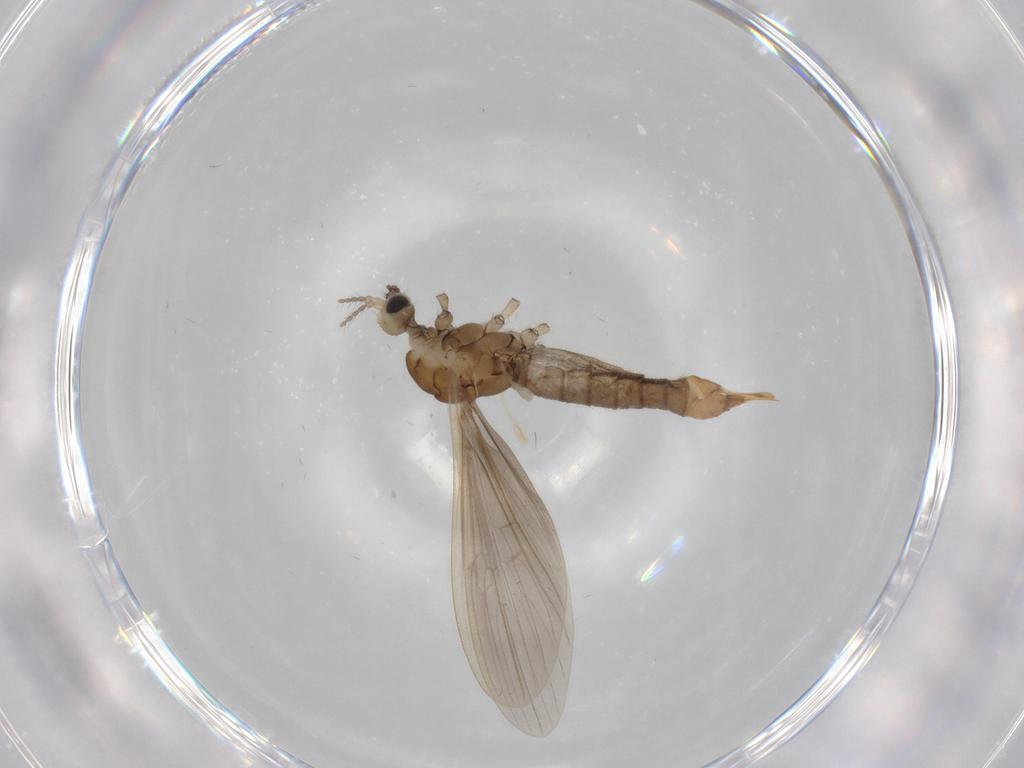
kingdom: Animalia
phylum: Arthropoda
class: Insecta
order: Diptera
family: Limoniidae
